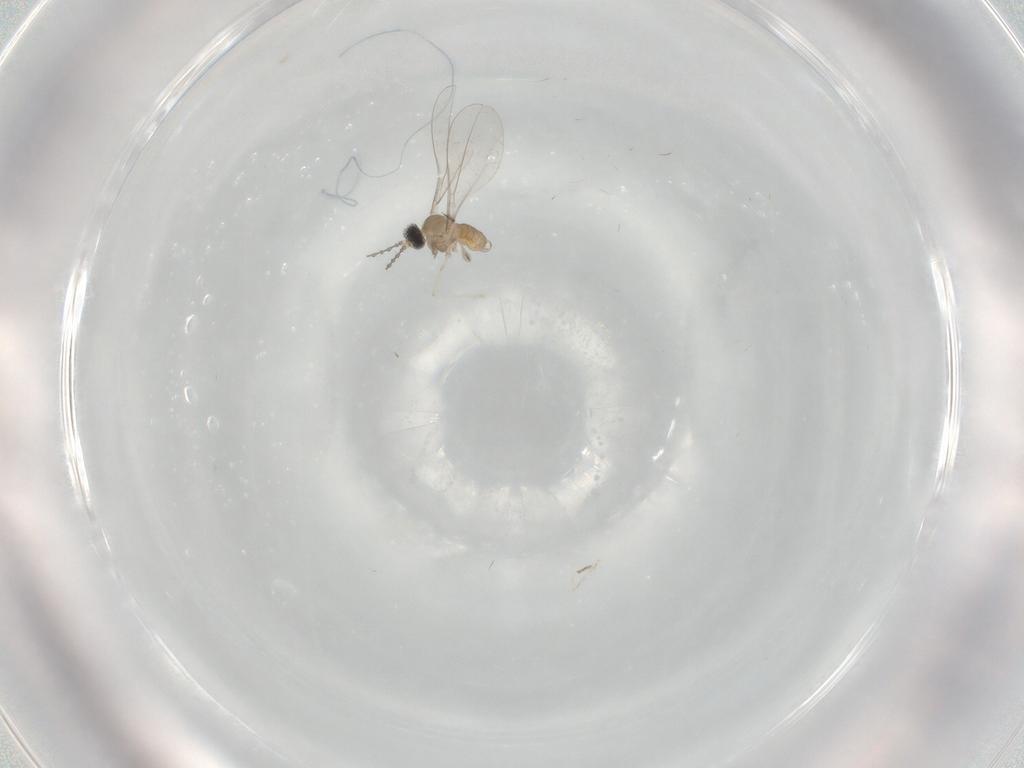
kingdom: Animalia
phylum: Arthropoda
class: Insecta
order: Diptera
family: Cecidomyiidae
